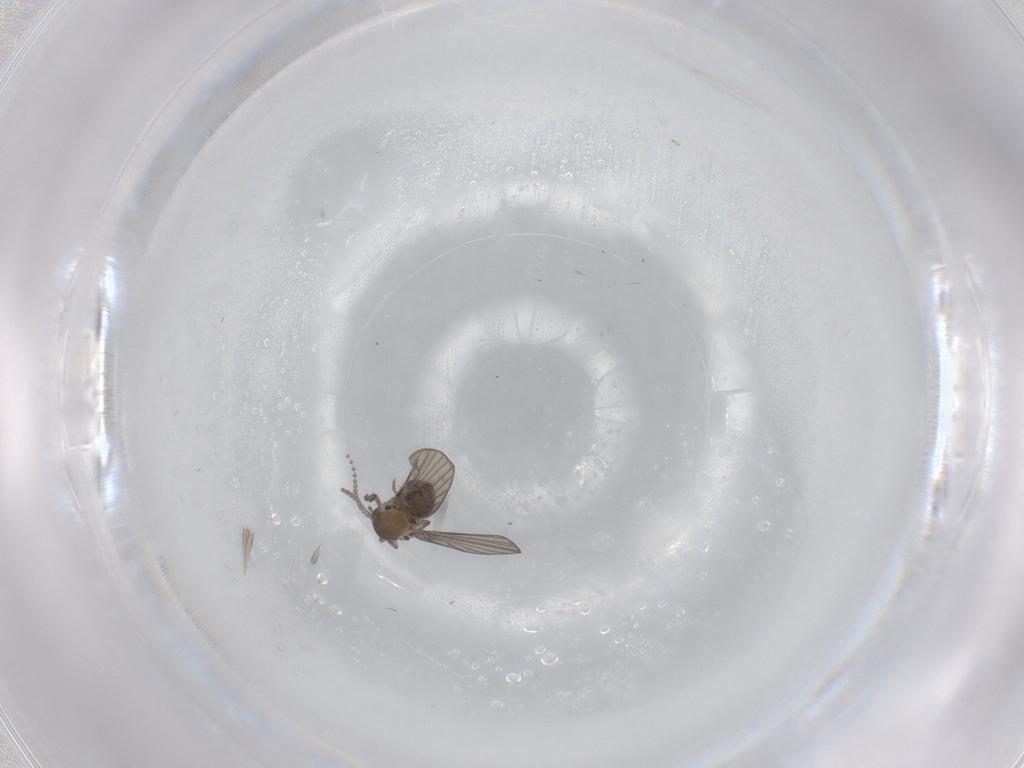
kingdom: Animalia
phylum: Arthropoda
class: Insecta
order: Diptera
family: Psychodidae
